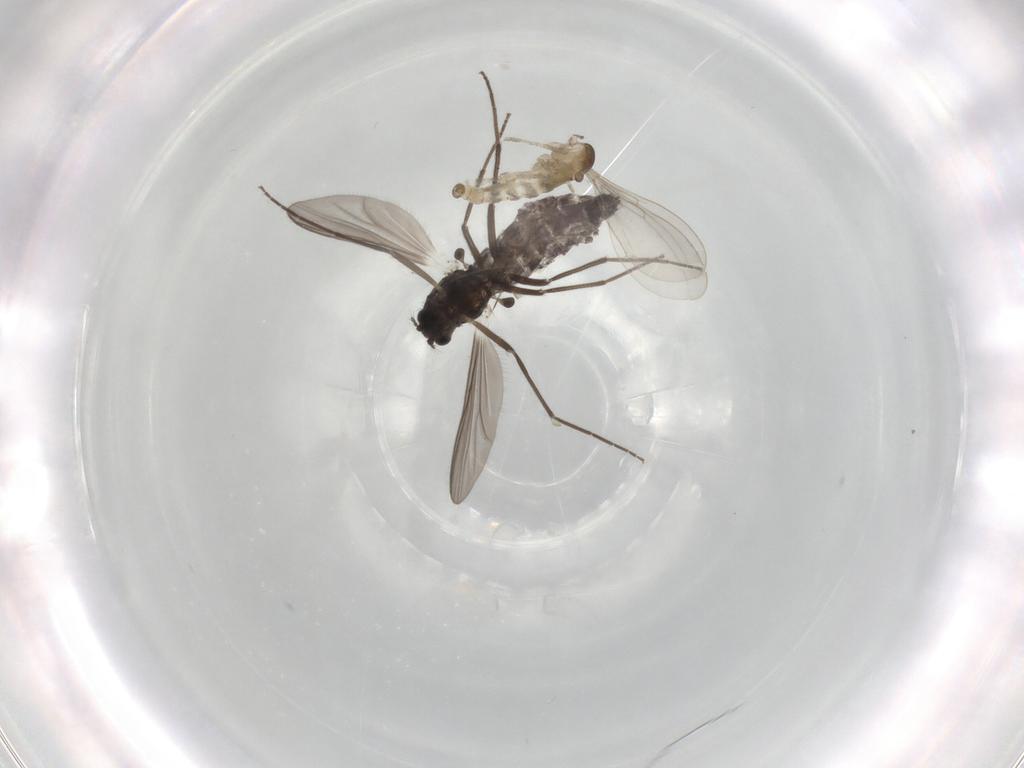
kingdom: Animalia
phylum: Arthropoda
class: Insecta
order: Diptera
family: Chironomidae
